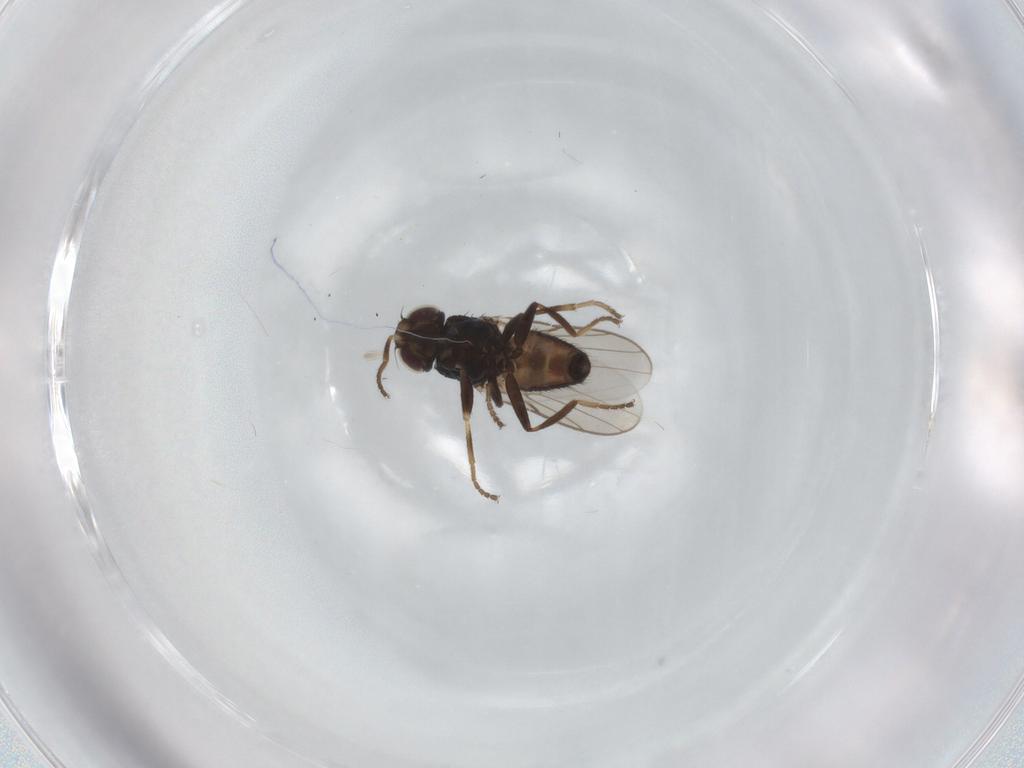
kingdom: Animalia
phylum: Arthropoda
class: Insecta
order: Diptera
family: Chloropidae
